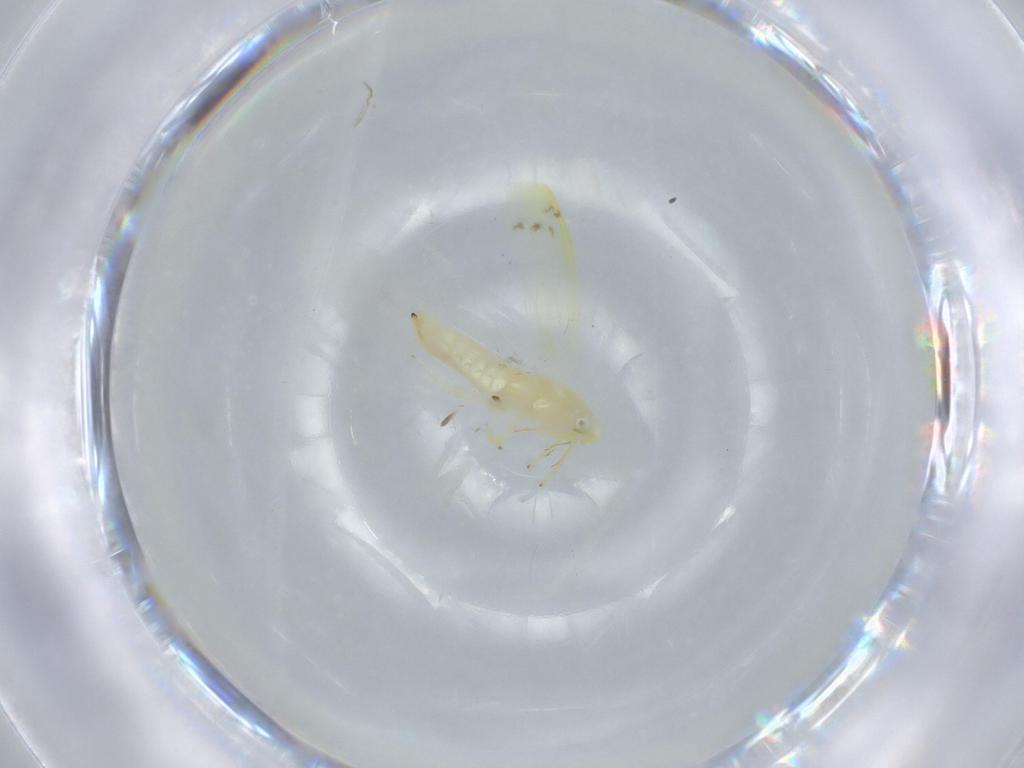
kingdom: Animalia
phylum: Arthropoda
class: Insecta
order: Hemiptera
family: Cicadellidae
